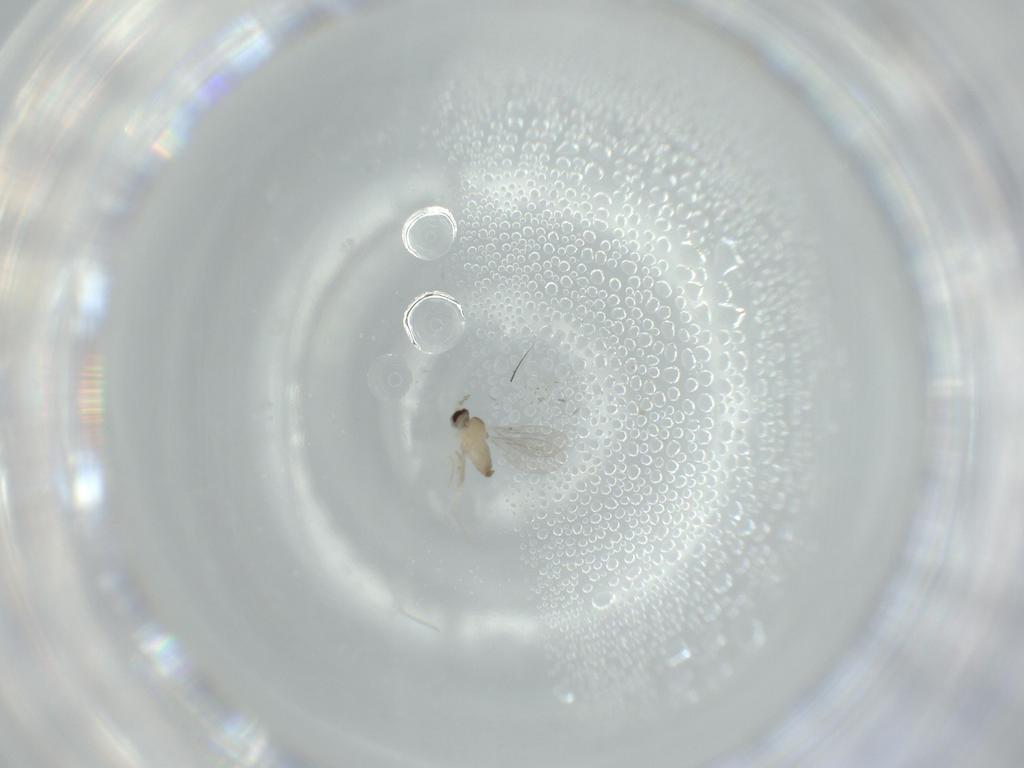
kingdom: Animalia
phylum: Arthropoda
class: Insecta
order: Diptera
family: Cecidomyiidae
